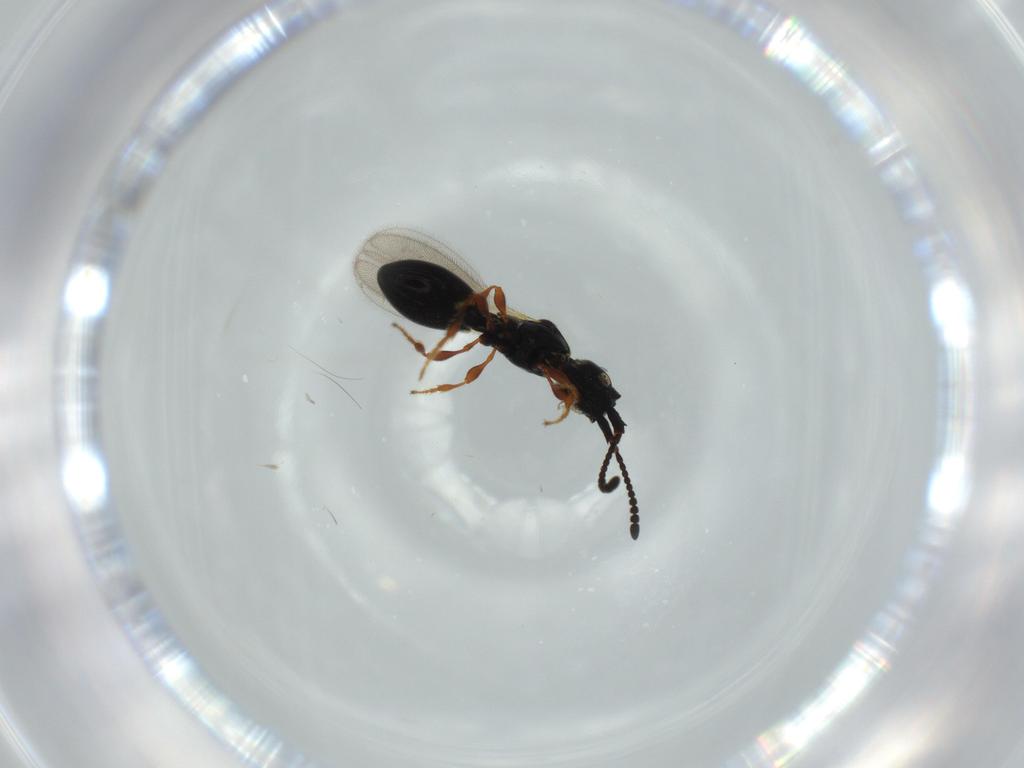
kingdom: Animalia
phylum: Arthropoda
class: Insecta
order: Hymenoptera
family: Diapriidae
